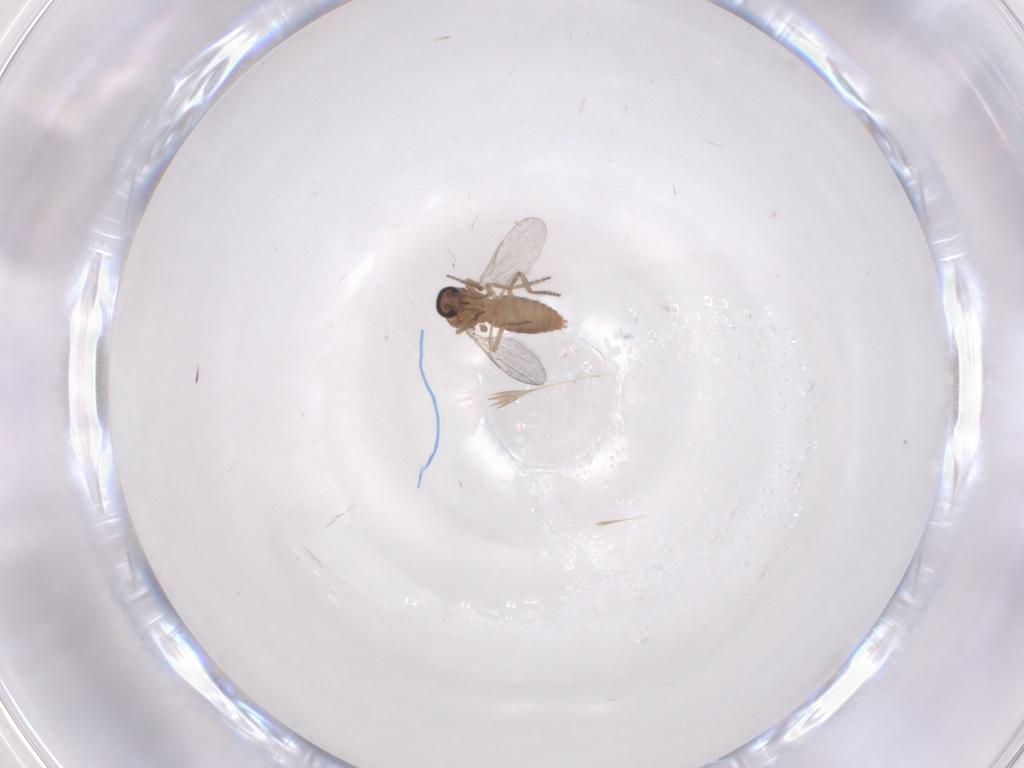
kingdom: Animalia
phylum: Arthropoda
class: Insecta
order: Diptera
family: Ceratopogonidae
